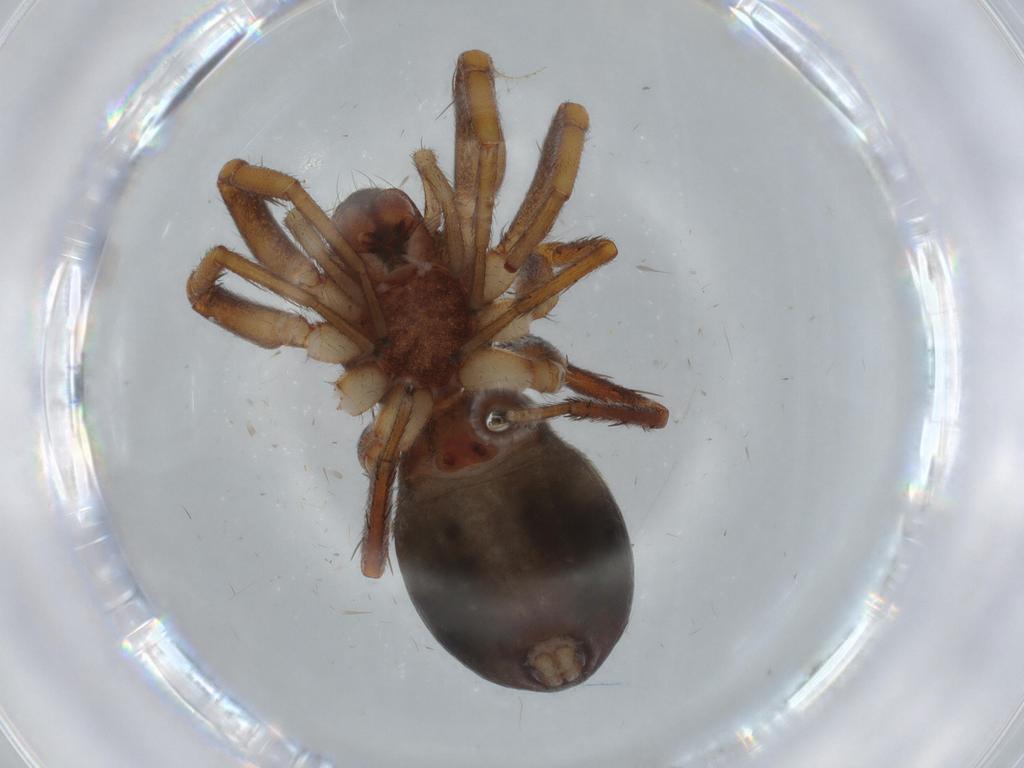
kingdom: Animalia
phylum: Arthropoda
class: Arachnida
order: Araneae
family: Corinnidae
